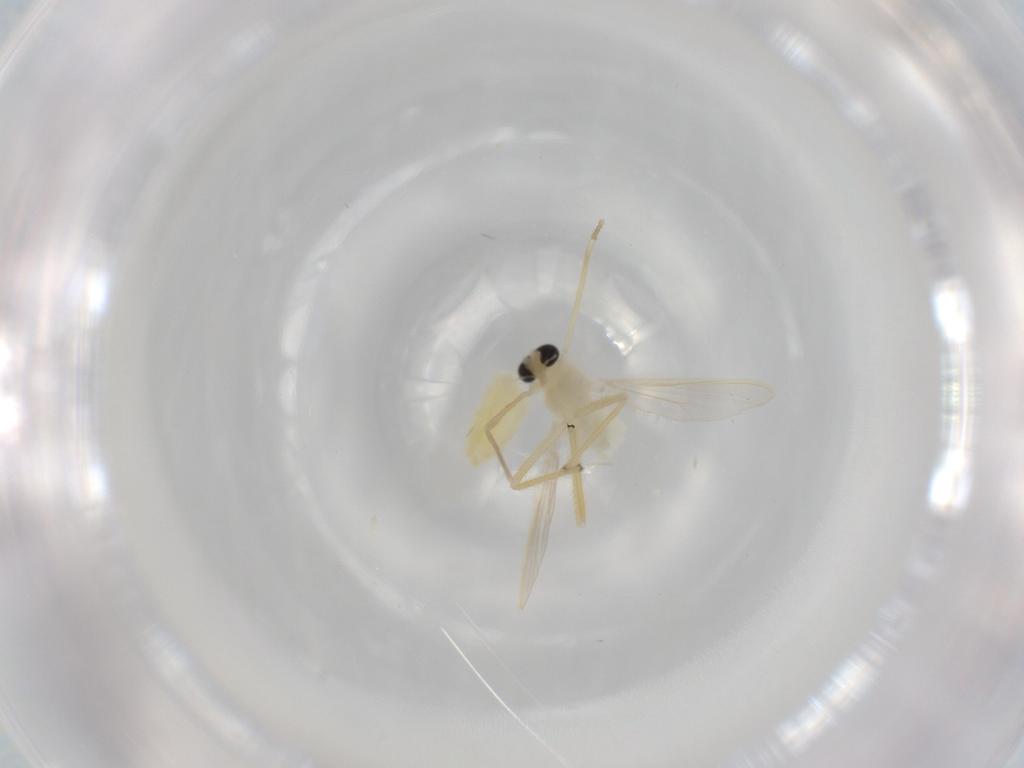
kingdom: Animalia
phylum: Arthropoda
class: Insecta
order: Diptera
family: Chironomidae
